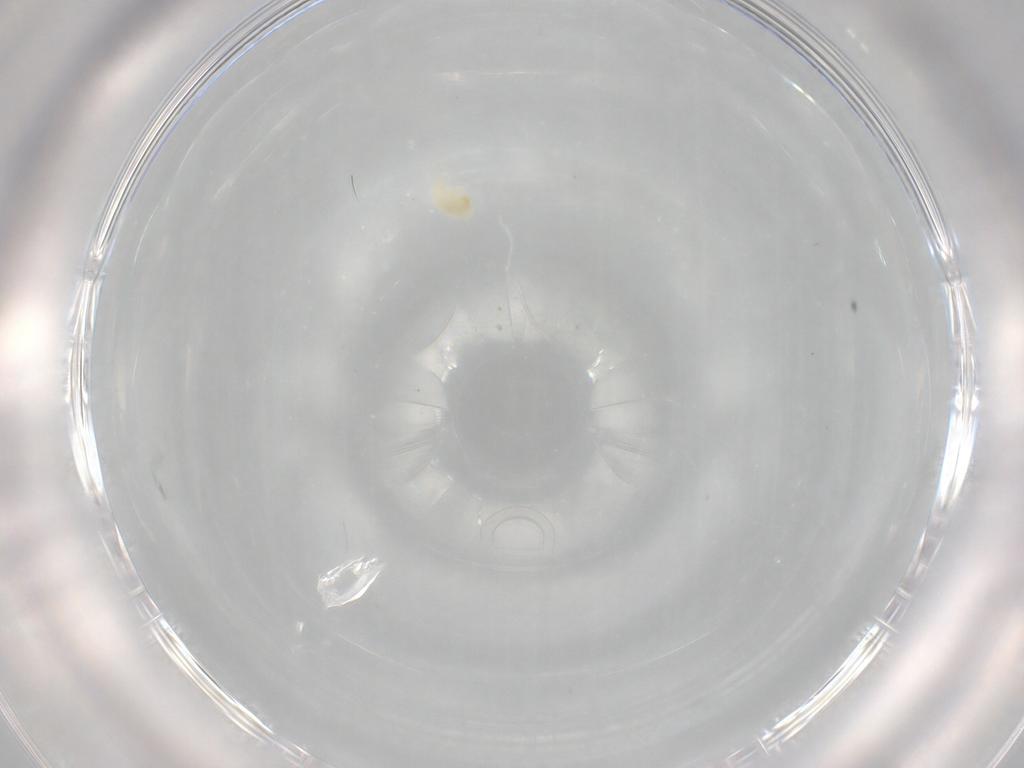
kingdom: Animalia
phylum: Arthropoda
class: Arachnida
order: Trombidiformes
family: Eupodidae
